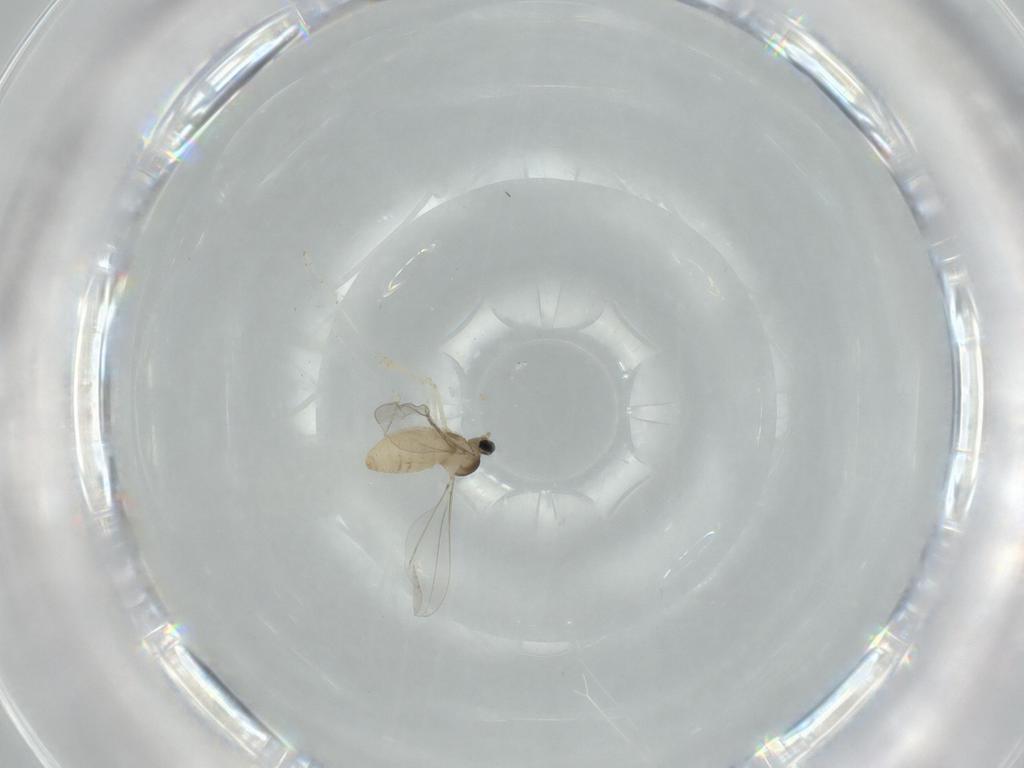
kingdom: Animalia
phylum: Arthropoda
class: Insecta
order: Diptera
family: Cecidomyiidae
